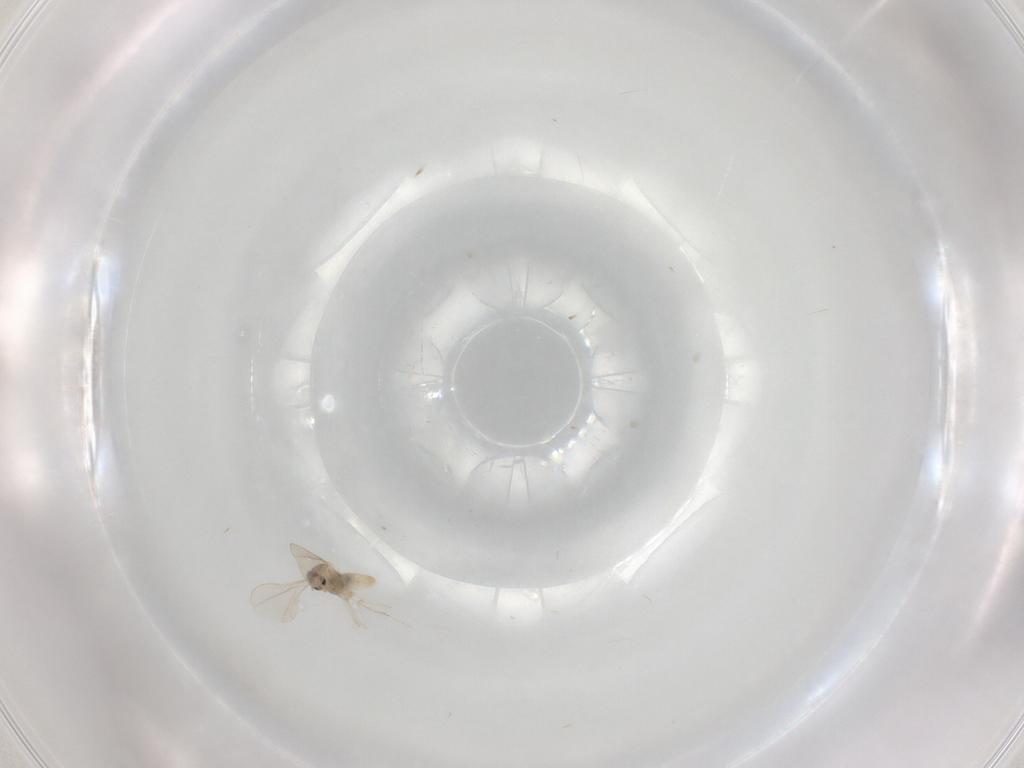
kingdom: Animalia
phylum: Arthropoda
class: Insecta
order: Diptera
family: Cecidomyiidae
